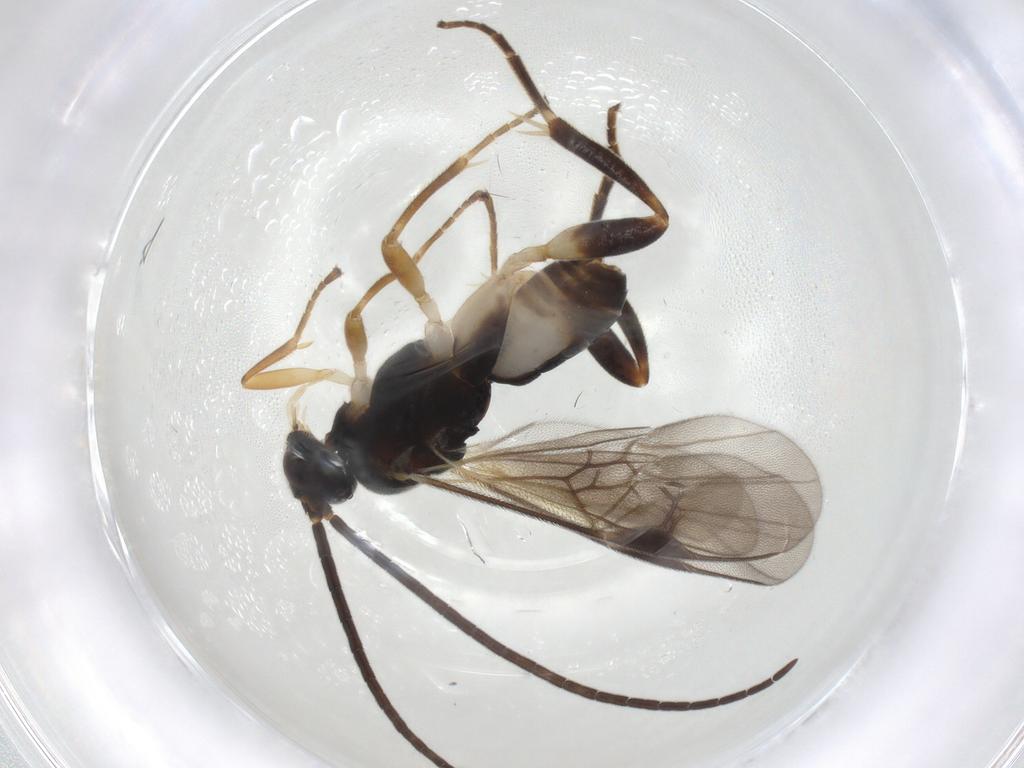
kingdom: Animalia
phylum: Arthropoda
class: Insecta
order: Hymenoptera
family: Braconidae
